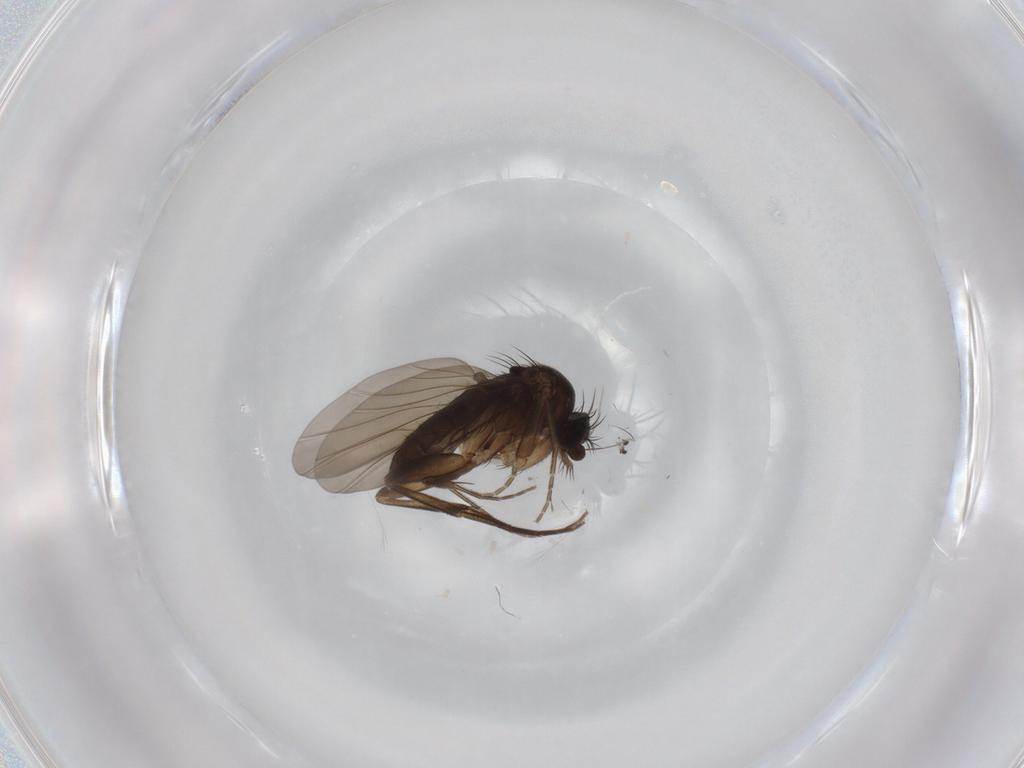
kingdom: Animalia
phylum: Arthropoda
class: Insecta
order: Diptera
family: Phoridae
